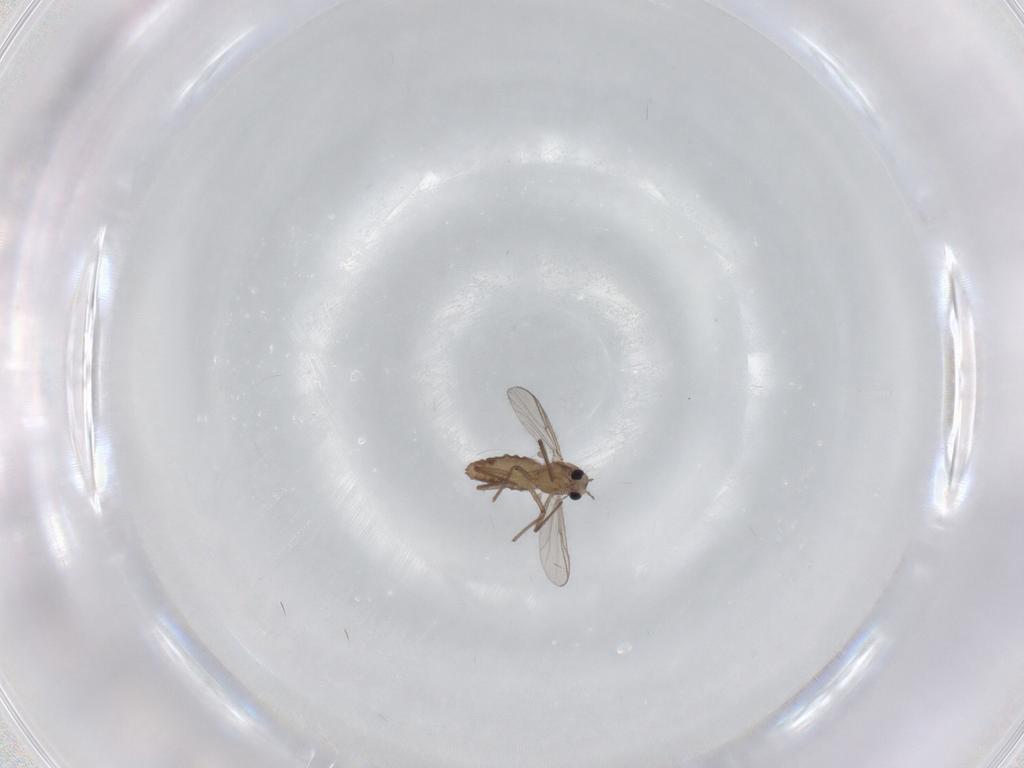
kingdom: Animalia
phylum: Arthropoda
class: Insecta
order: Diptera
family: Chironomidae
